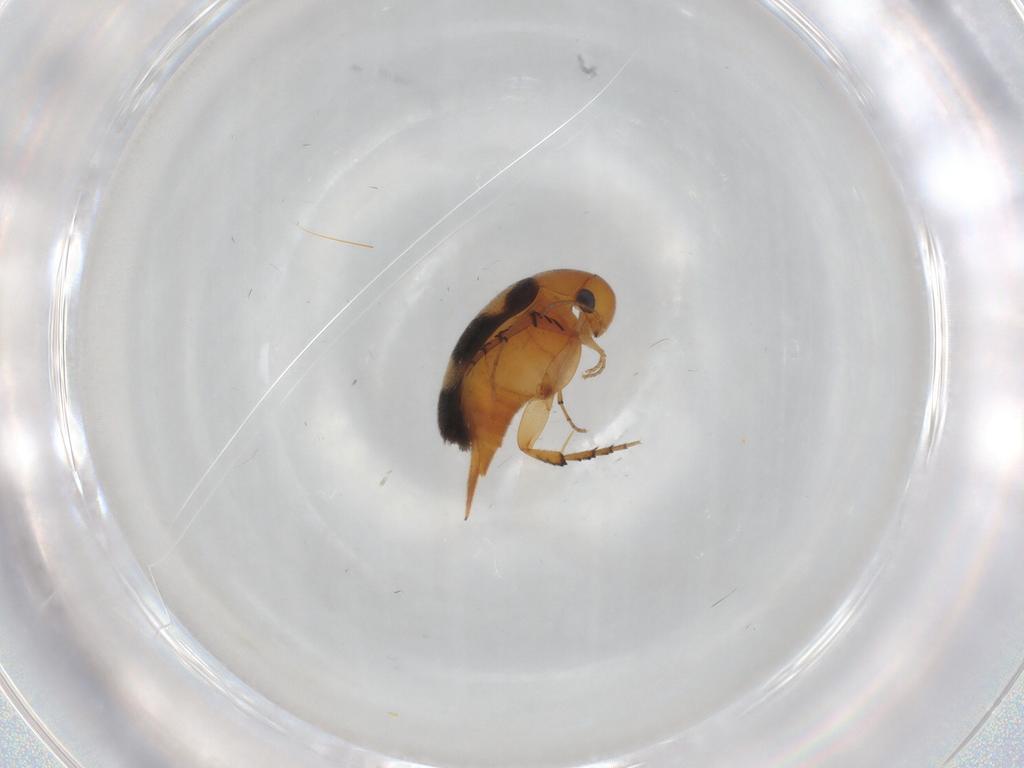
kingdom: Animalia
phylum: Arthropoda
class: Insecta
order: Coleoptera
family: Mordellidae
